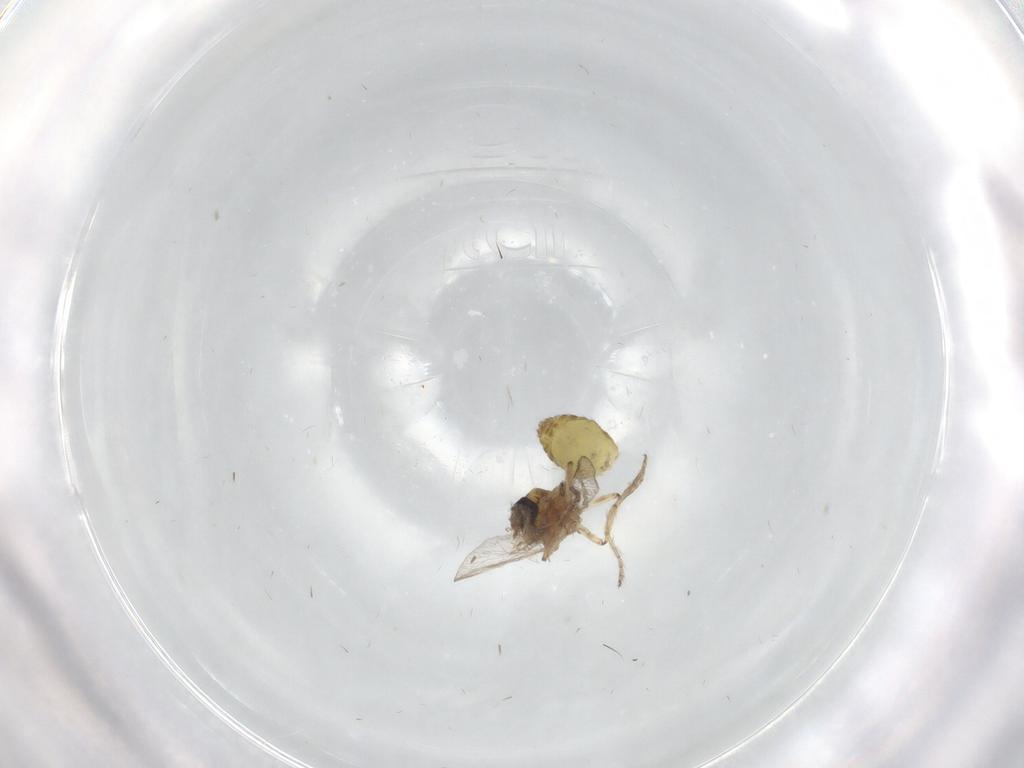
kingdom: Animalia
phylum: Arthropoda
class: Insecta
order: Diptera
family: Ceratopogonidae
